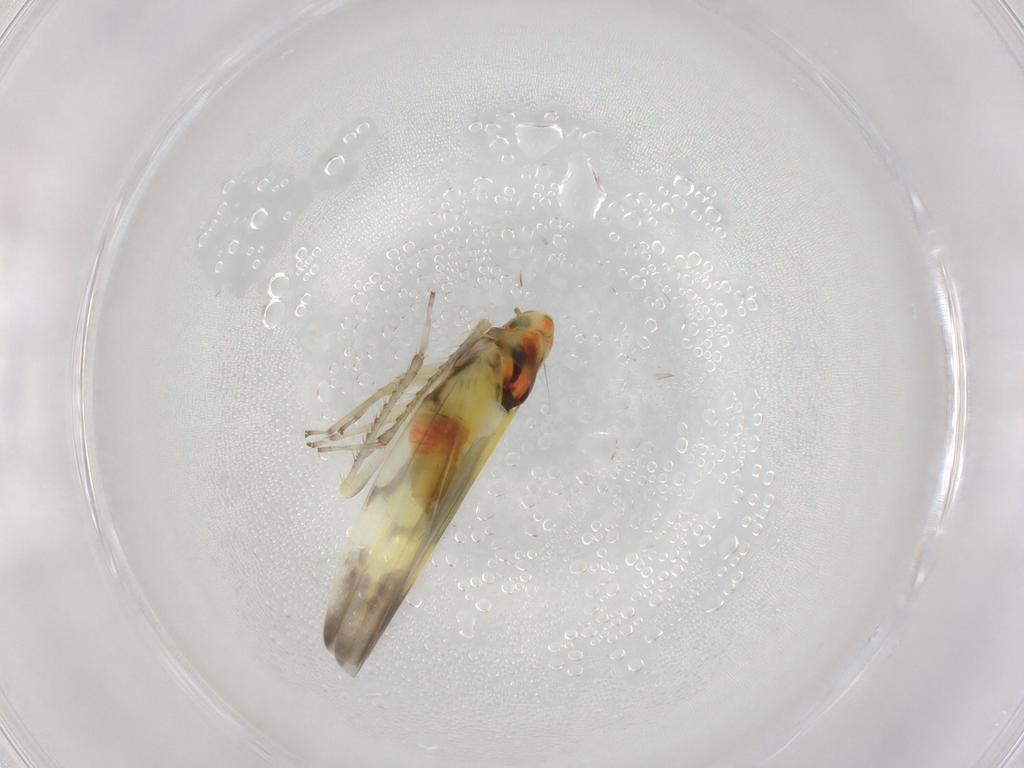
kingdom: Animalia
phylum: Arthropoda
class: Insecta
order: Hemiptera
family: Cicadellidae
